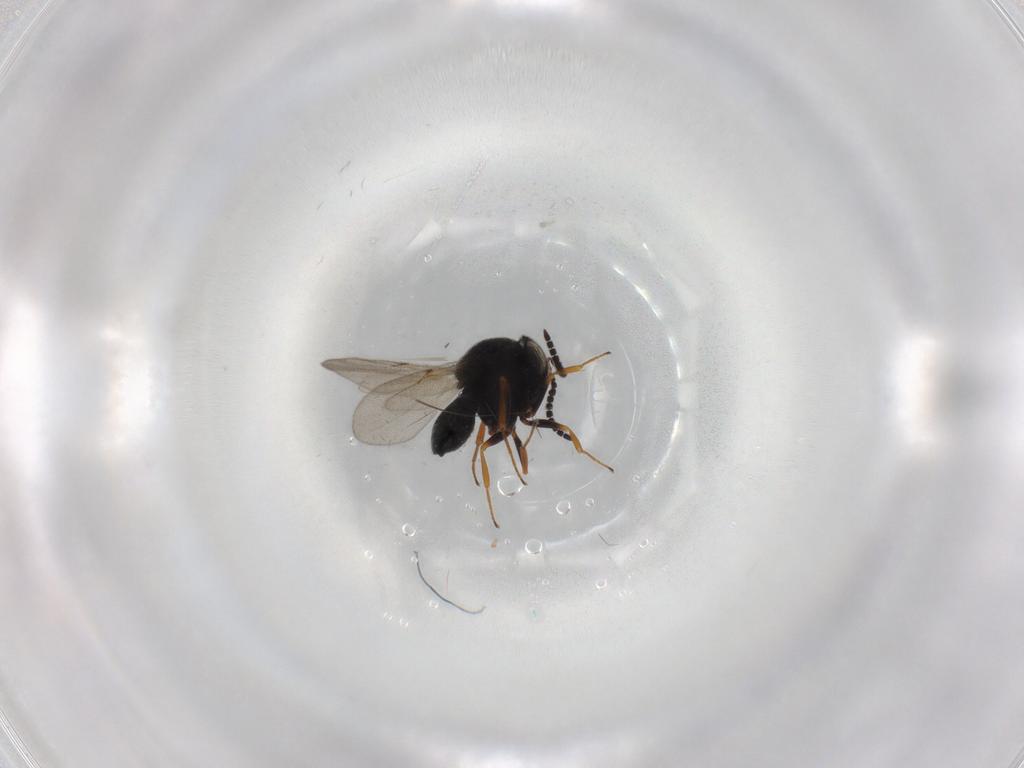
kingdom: Animalia
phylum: Arthropoda
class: Insecta
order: Hymenoptera
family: Scelionidae
